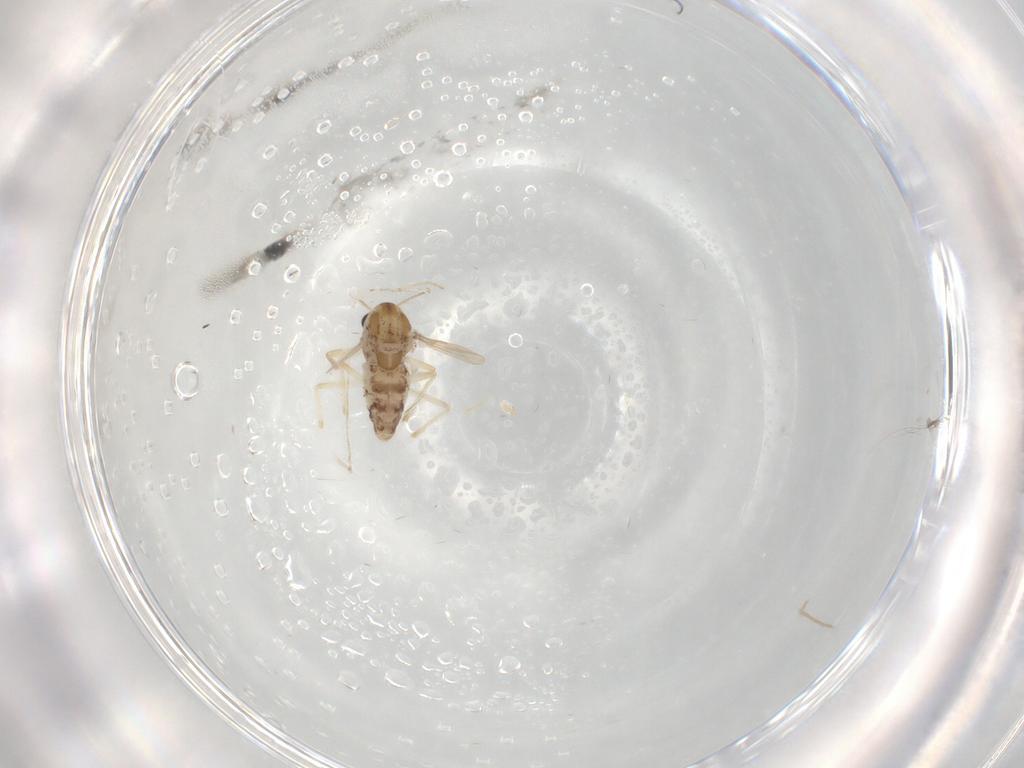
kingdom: Animalia
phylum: Arthropoda
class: Insecta
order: Diptera
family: Chironomidae
